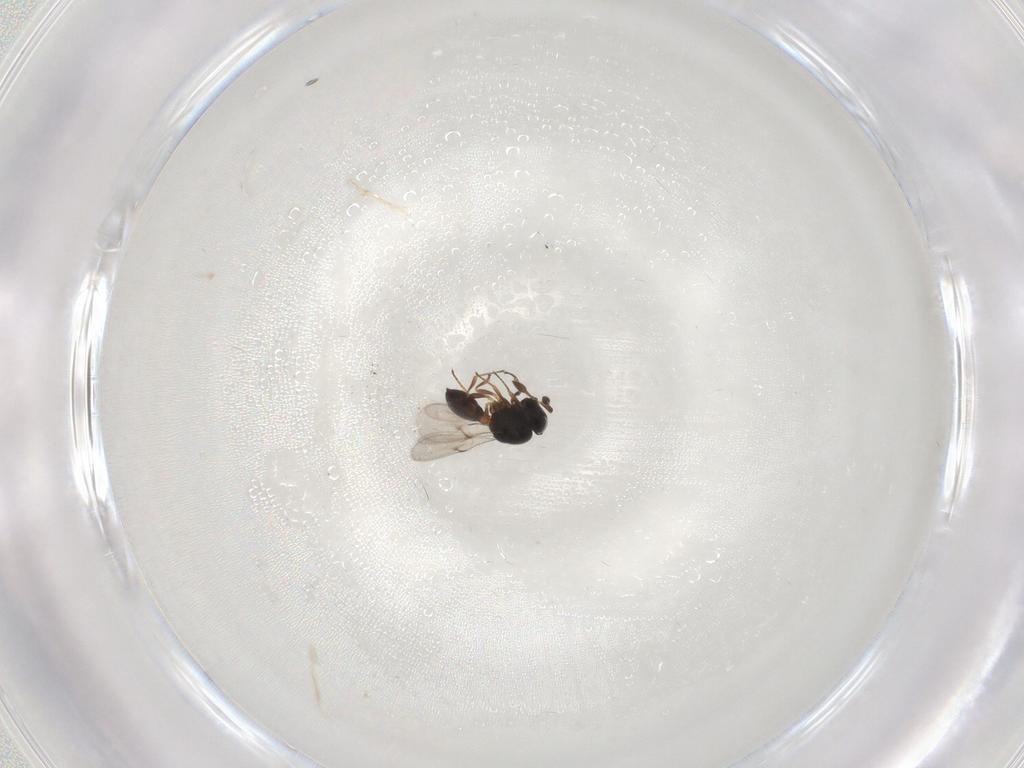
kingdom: Animalia
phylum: Arthropoda
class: Insecta
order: Hymenoptera
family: Scelionidae
